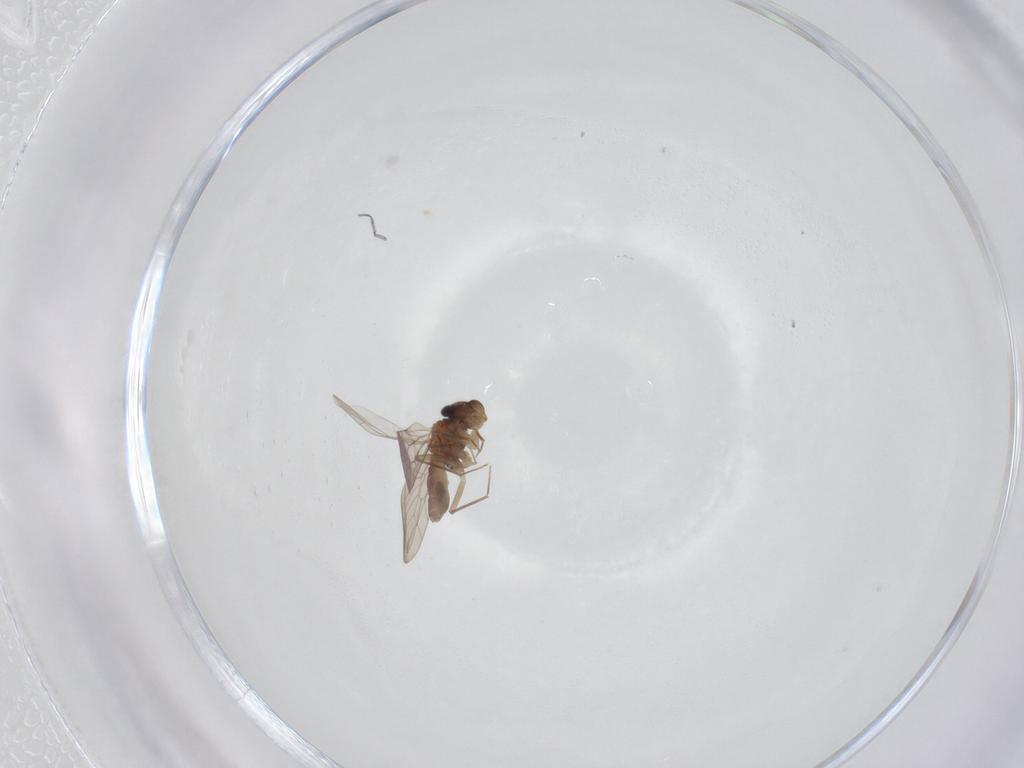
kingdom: Animalia
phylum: Arthropoda
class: Insecta
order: Psocodea
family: Lepidopsocidae
